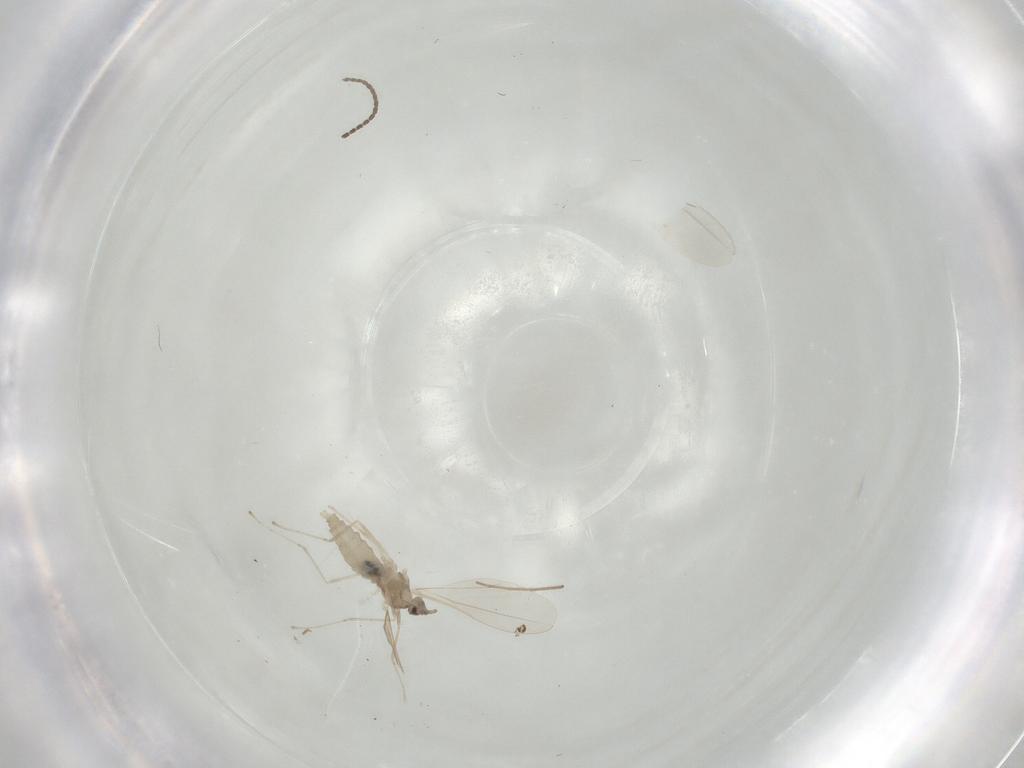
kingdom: Animalia
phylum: Arthropoda
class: Insecta
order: Diptera
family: Cecidomyiidae
